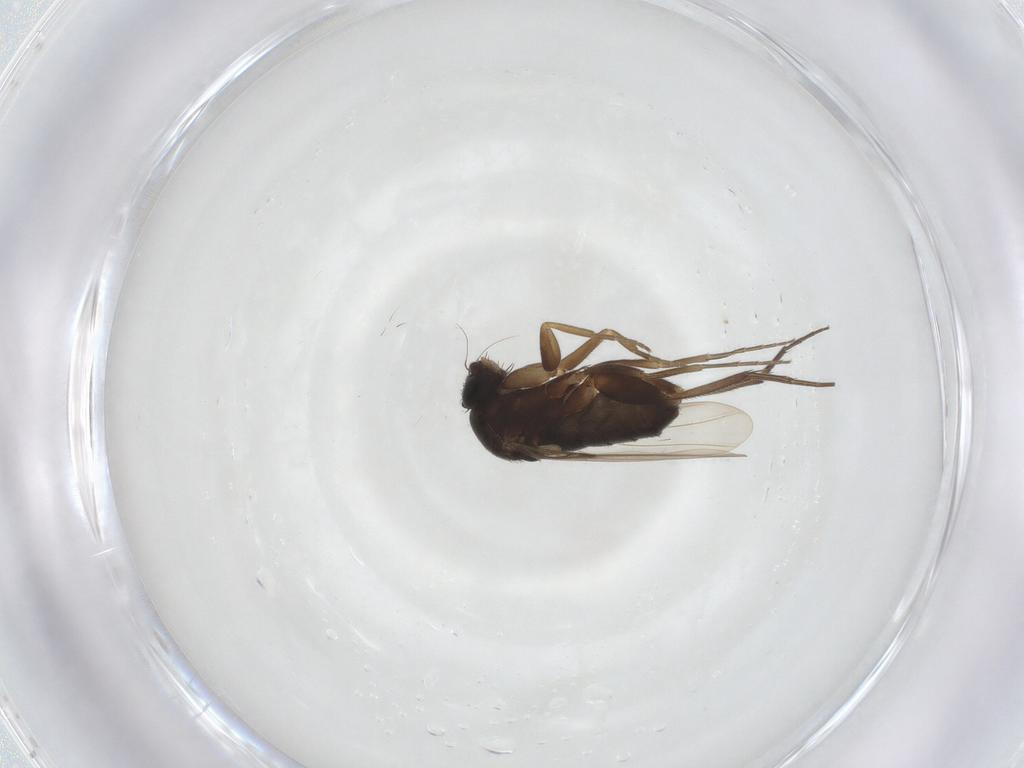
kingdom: Animalia
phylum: Arthropoda
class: Insecta
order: Diptera
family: Phoridae
